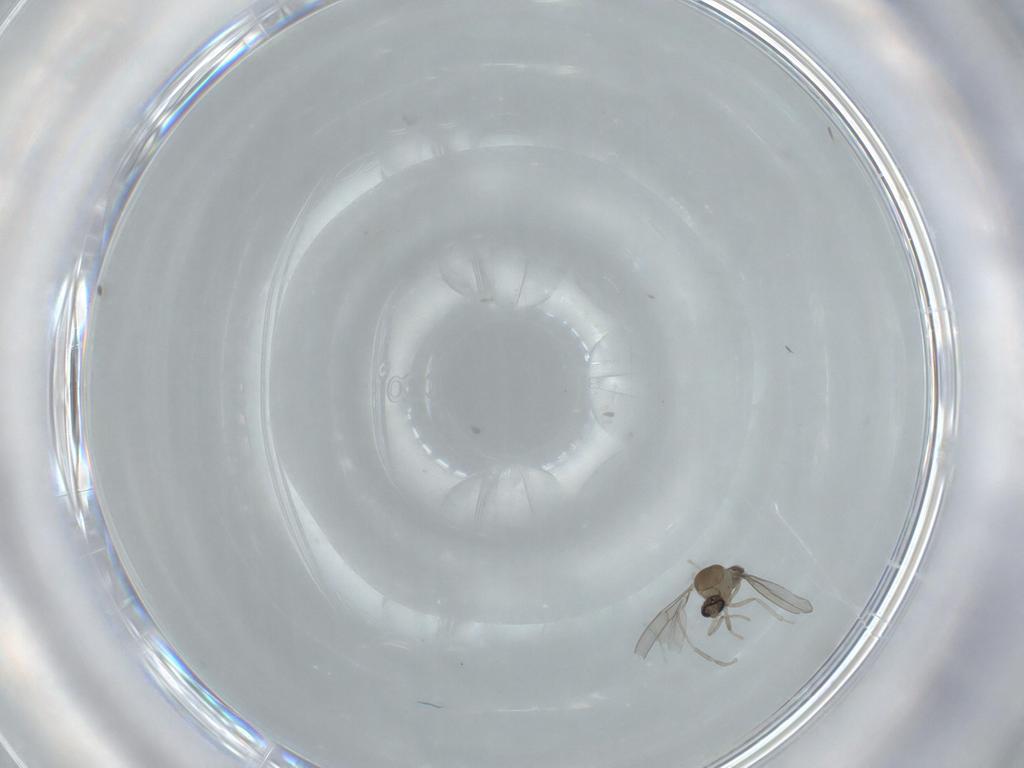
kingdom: Animalia
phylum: Arthropoda
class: Insecta
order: Diptera
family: Cecidomyiidae
